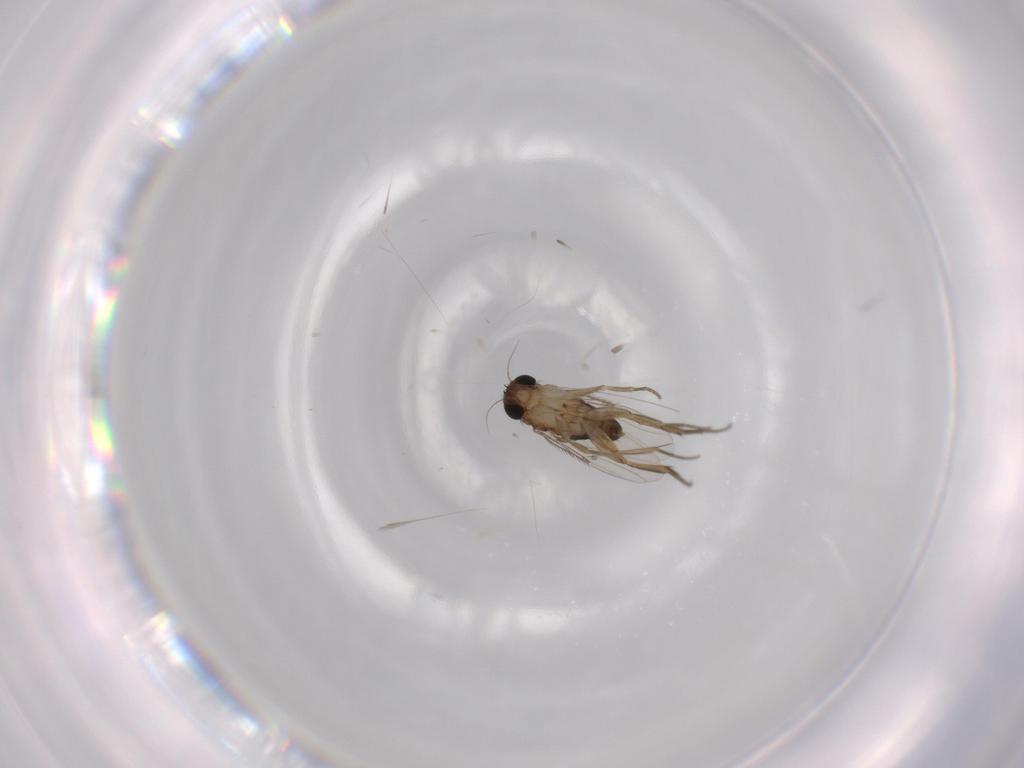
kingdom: Animalia
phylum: Arthropoda
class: Insecta
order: Diptera
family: Phoridae
